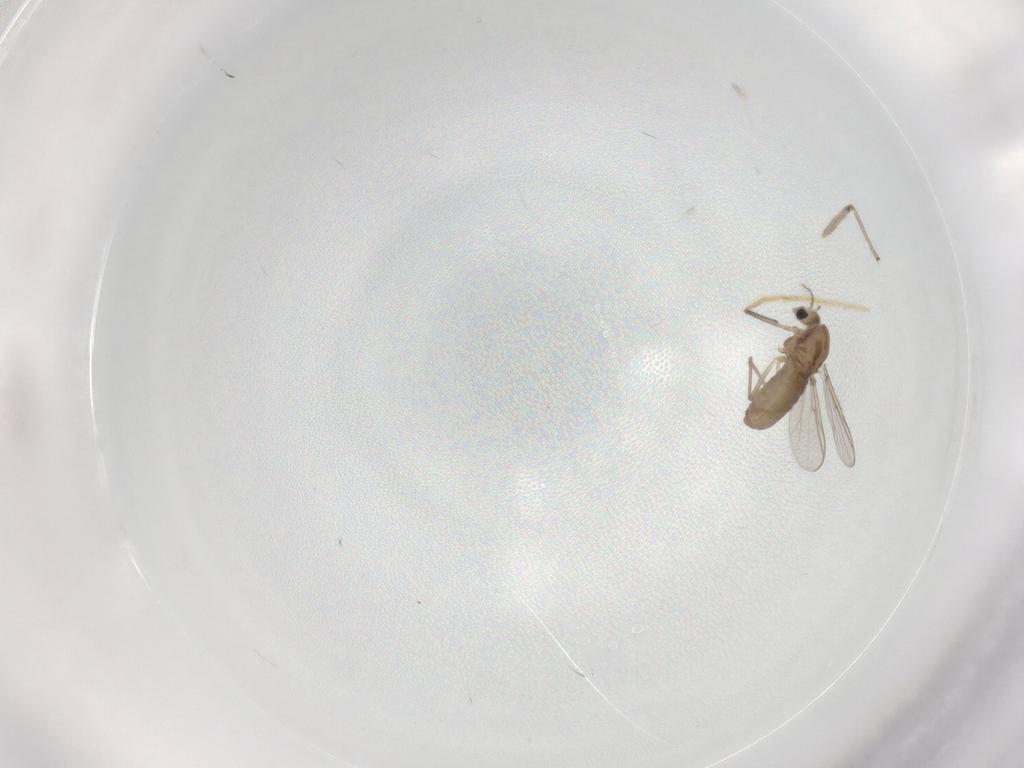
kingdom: Animalia
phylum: Arthropoda
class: Insecta
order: Diptera
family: Chironomidae
